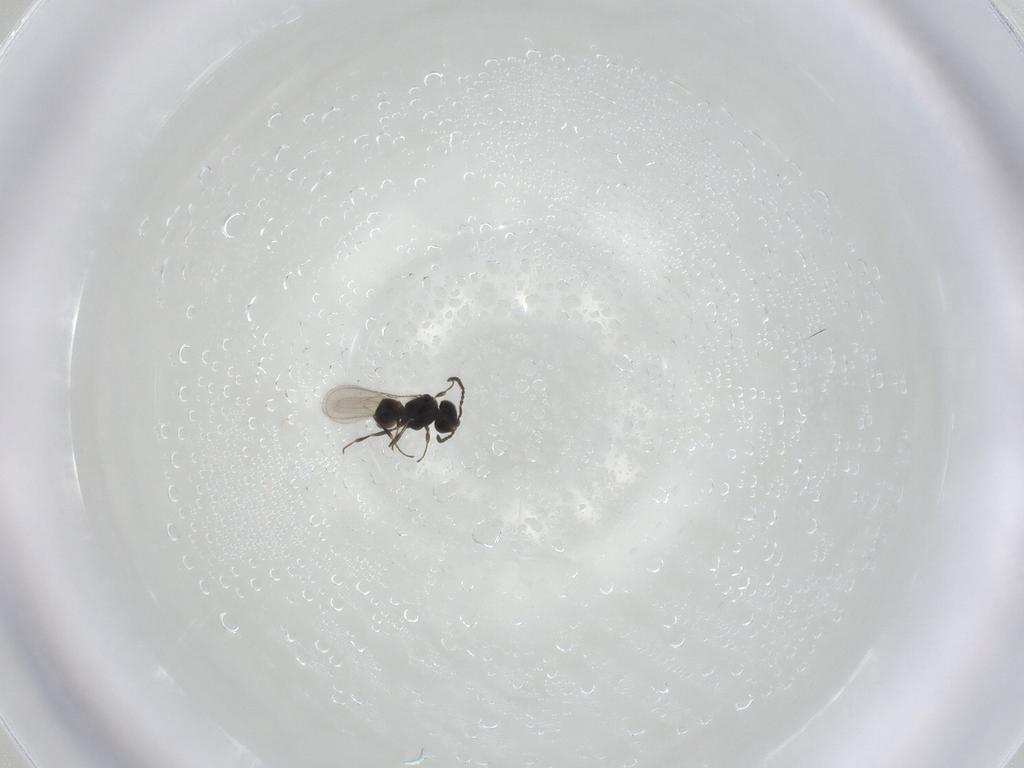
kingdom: Animalia
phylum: Arthropoda
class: Insecta
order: Hymenoptera
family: Scelionidae
